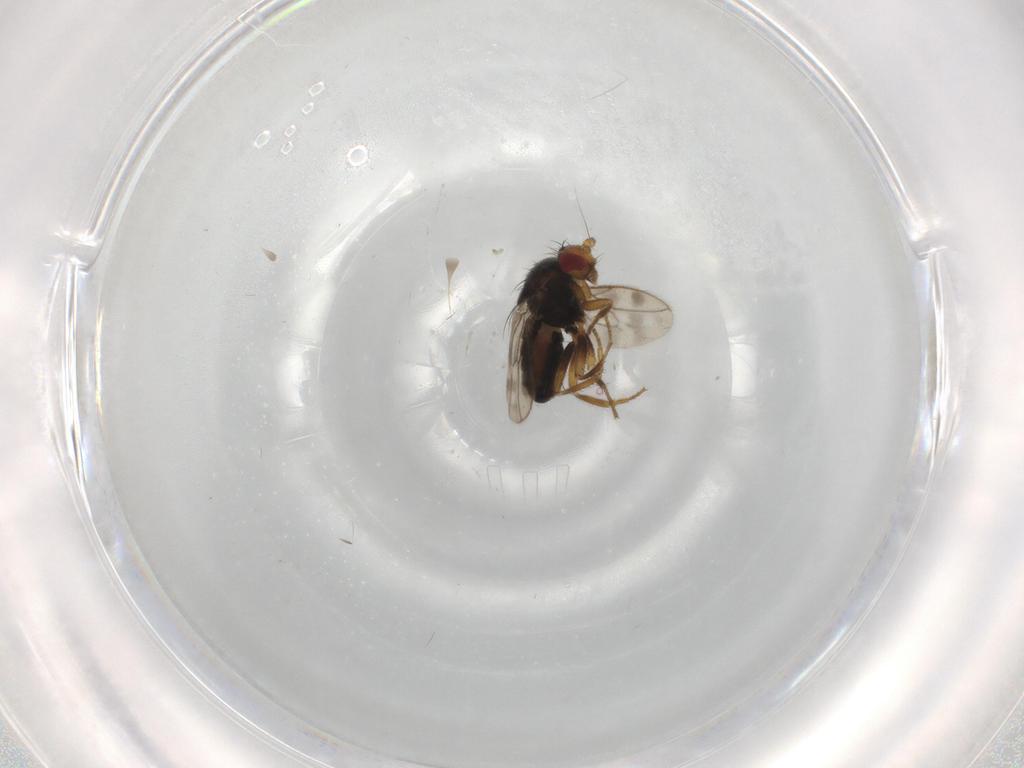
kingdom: Animalia
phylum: Arthropoda
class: Insecta
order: Diptera
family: Sphaeroceridae
